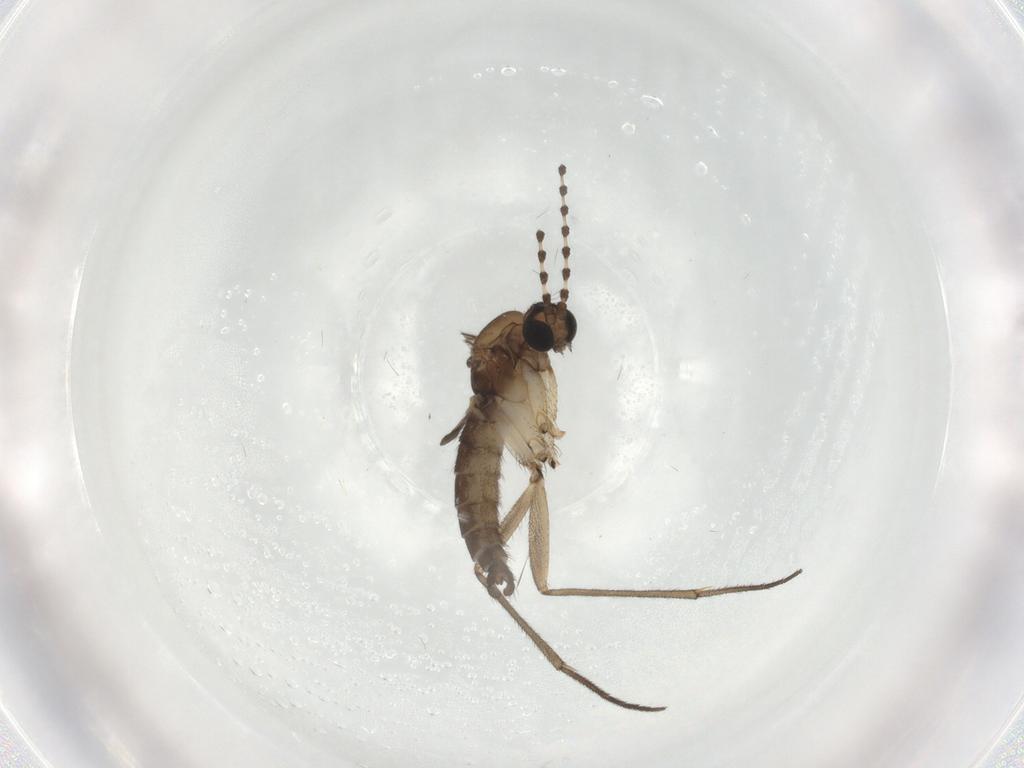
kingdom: Animalia
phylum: Arthropoda
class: Insecta
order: Diptera
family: Sciaridae
